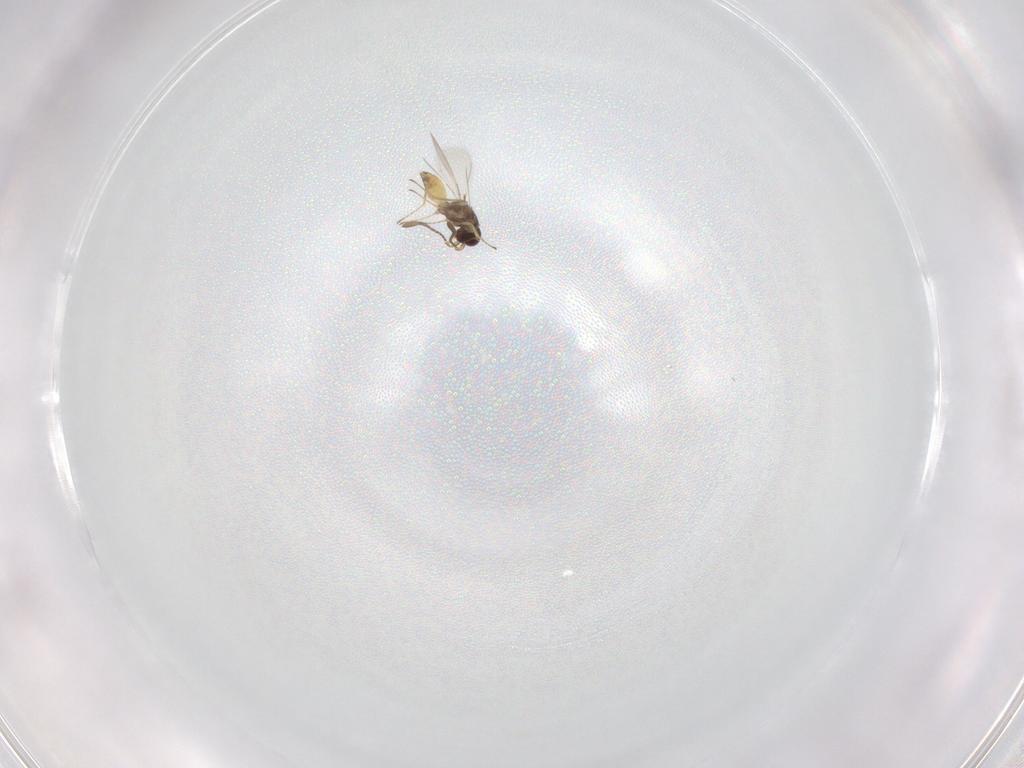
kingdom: Animalia
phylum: Arthropoda
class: Insecta
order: Hymenoptera
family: Mymaridae
